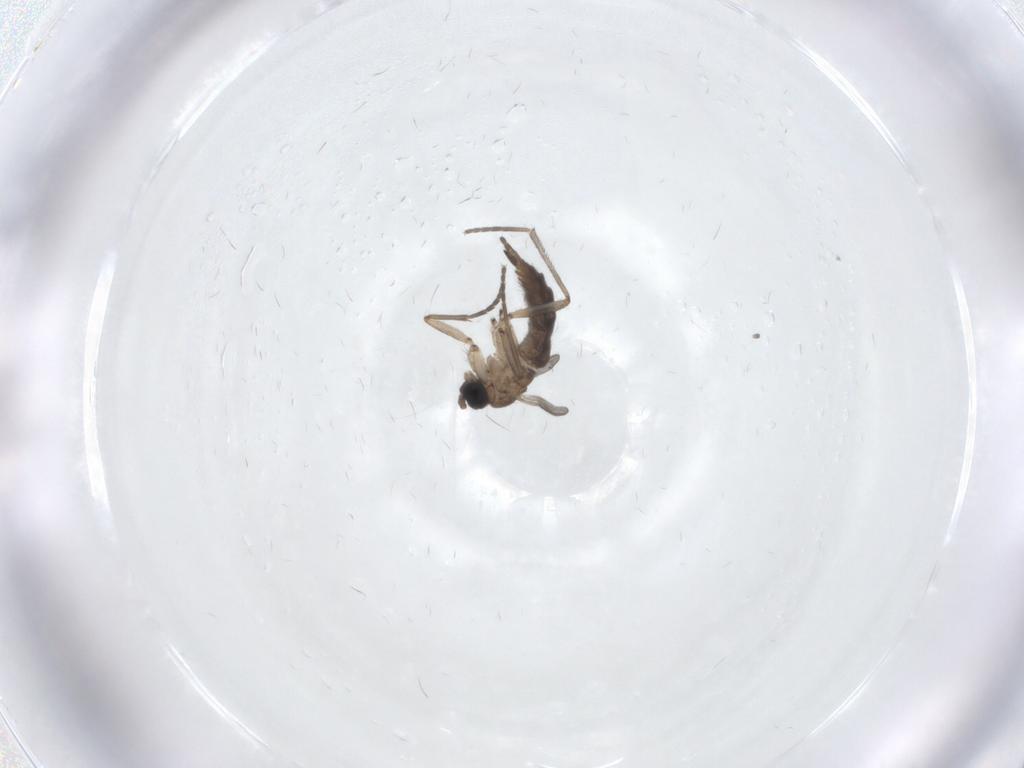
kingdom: Animalia
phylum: Arthropoda
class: Insecta
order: Diptera
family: Sciaridae
